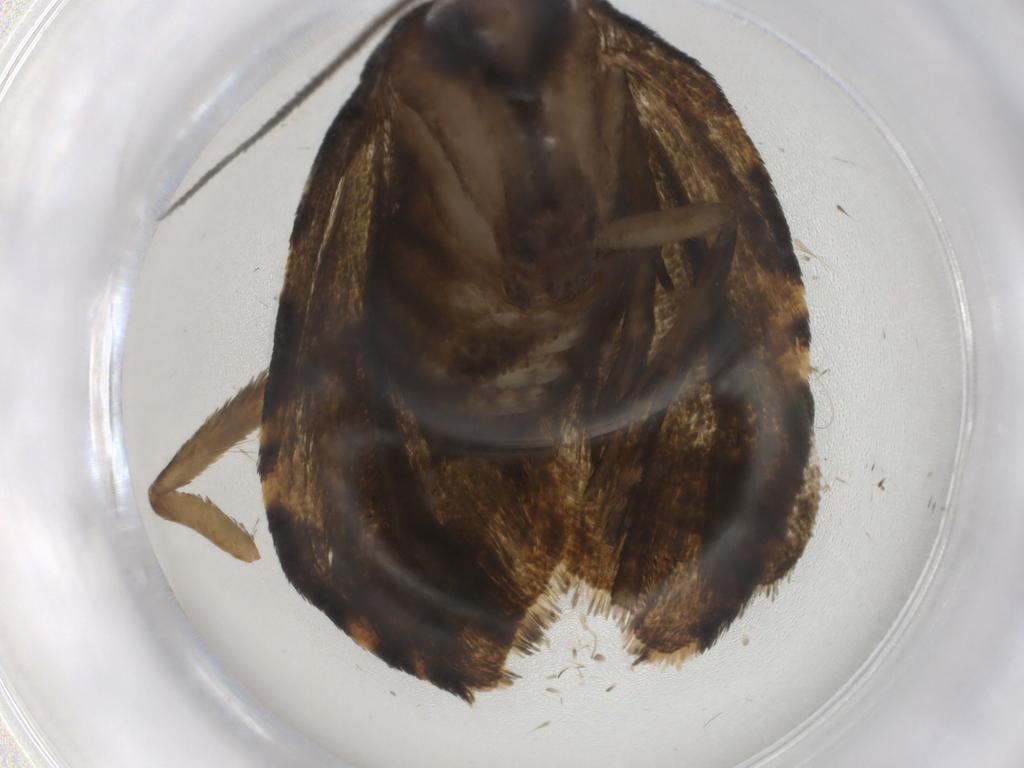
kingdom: Animalia
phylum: Arthropoda
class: Insecta
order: Lepidoptera
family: Tortricidae
